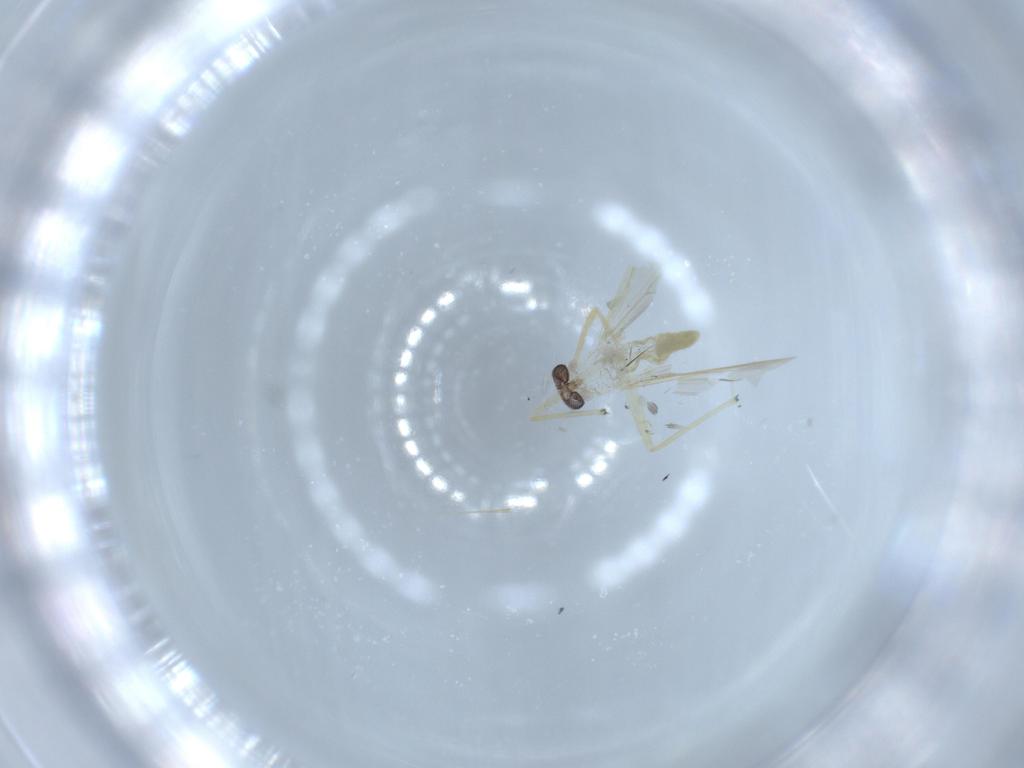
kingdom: Animalia
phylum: Arthropoda
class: Insecta
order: Diptera
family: Chironomidae
